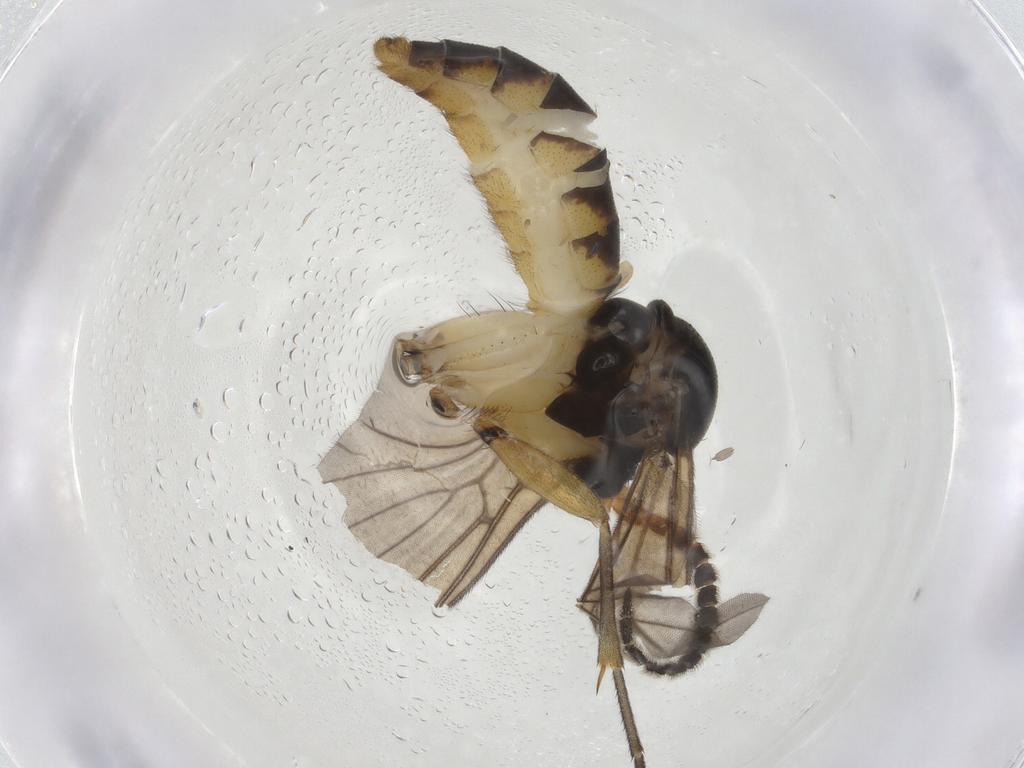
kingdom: Animalia
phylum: Arthropoda
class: Insecta
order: Diptera
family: Mycetophilidae
